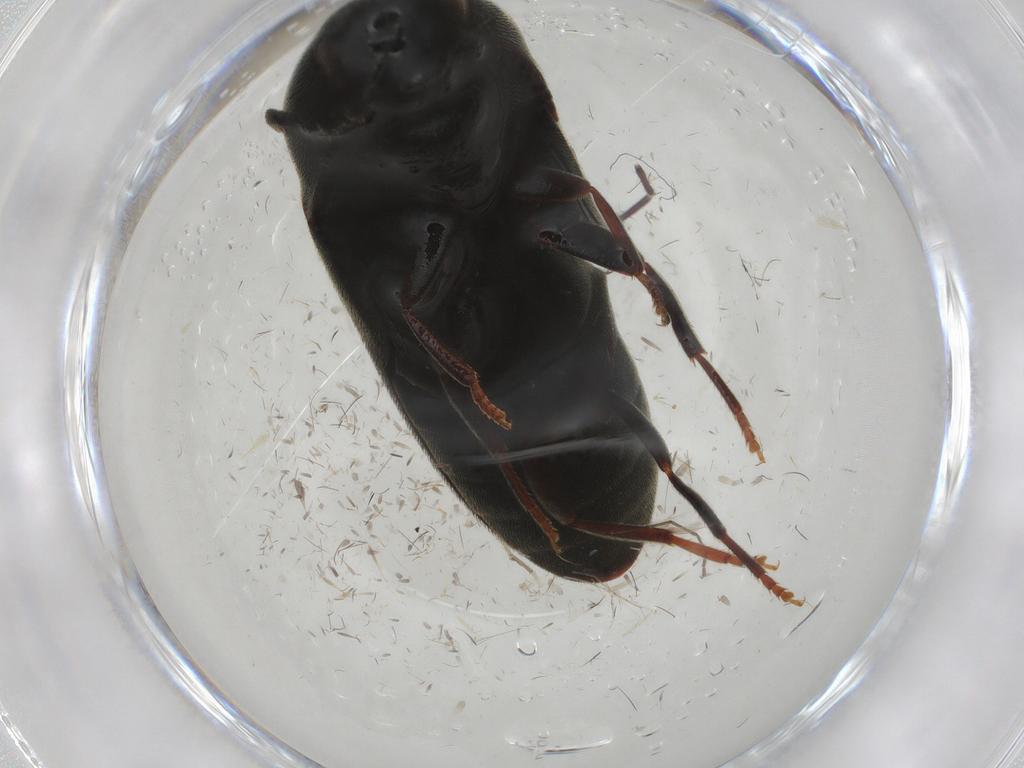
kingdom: Animalia
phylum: Arthropoda
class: Insecta
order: Coleoptera
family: Eucnemidae
